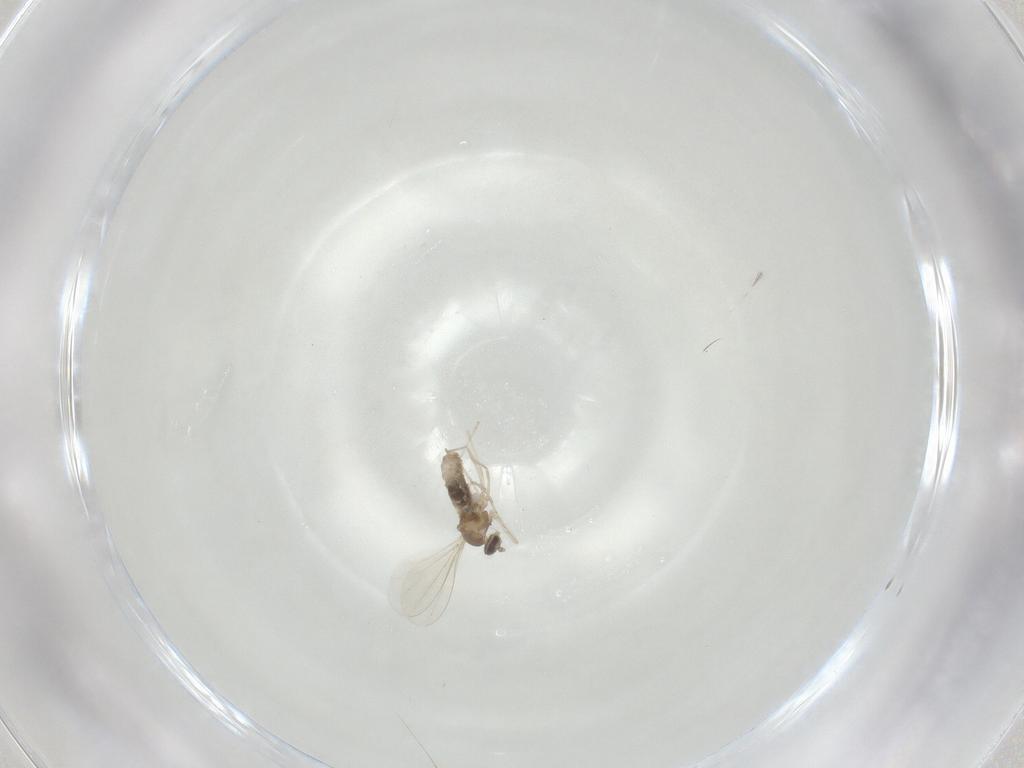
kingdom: Animalia
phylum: Arthropoda
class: Insecta
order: Diptera
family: Cecidomyiidae
